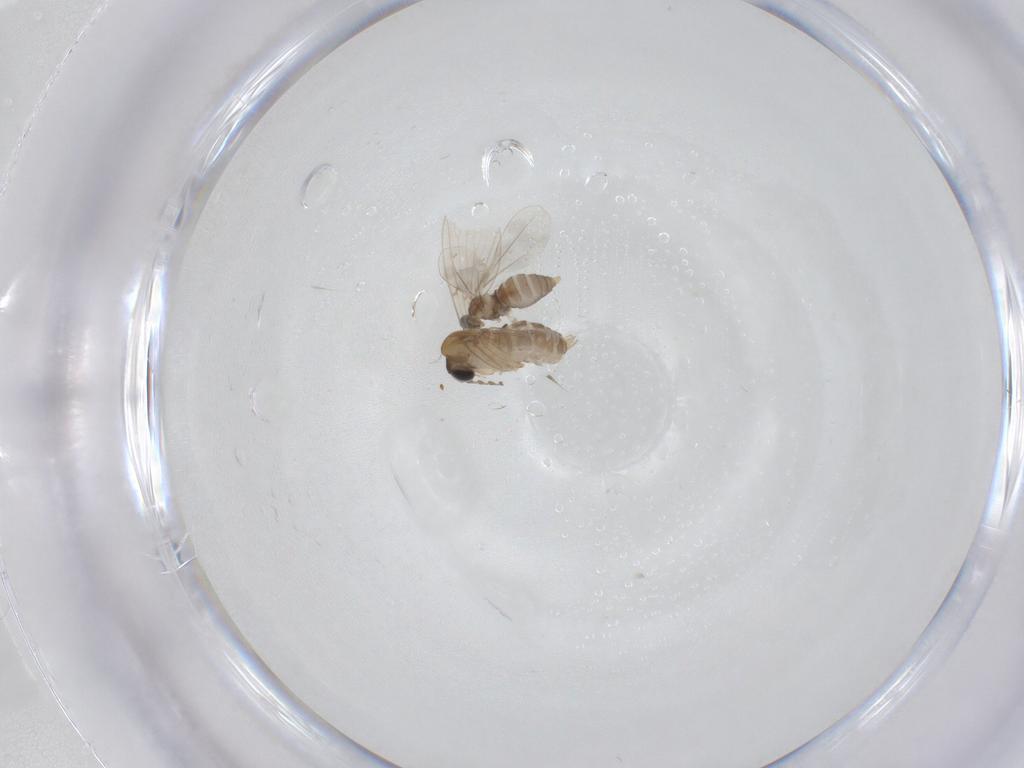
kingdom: Animalia
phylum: Arthropoda
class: Insecta
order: Diptera
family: Cecidomyiidae
